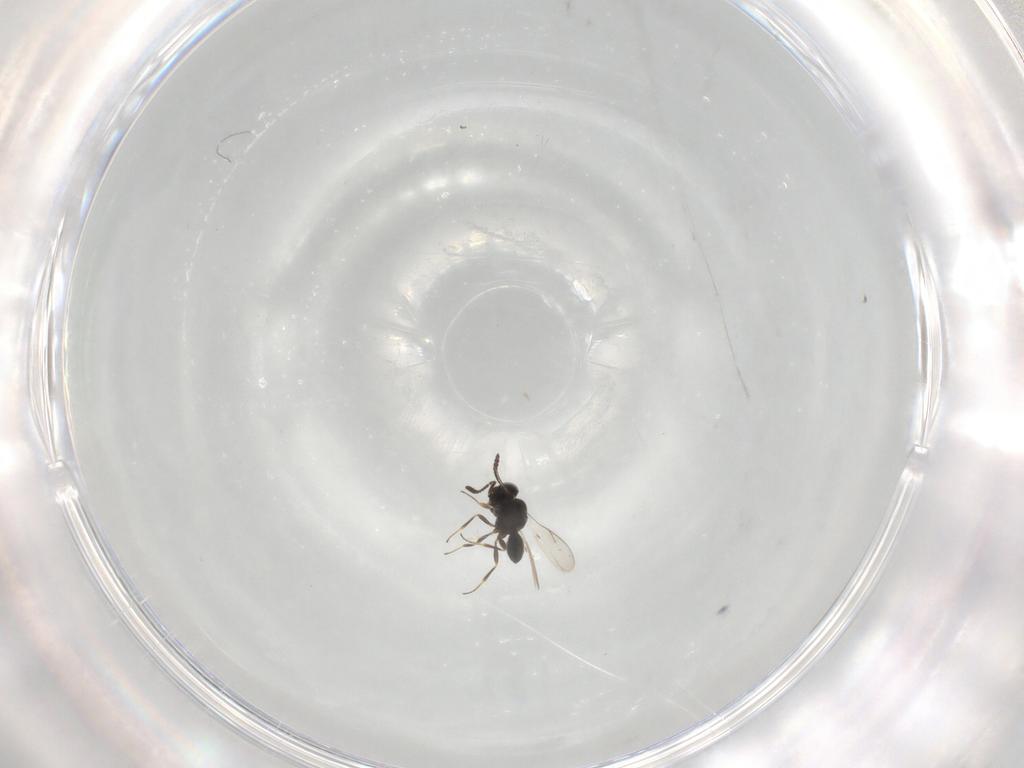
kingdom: Animalia
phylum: Arthropoda
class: Insecta
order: Hymenoptera
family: Scelionidae
